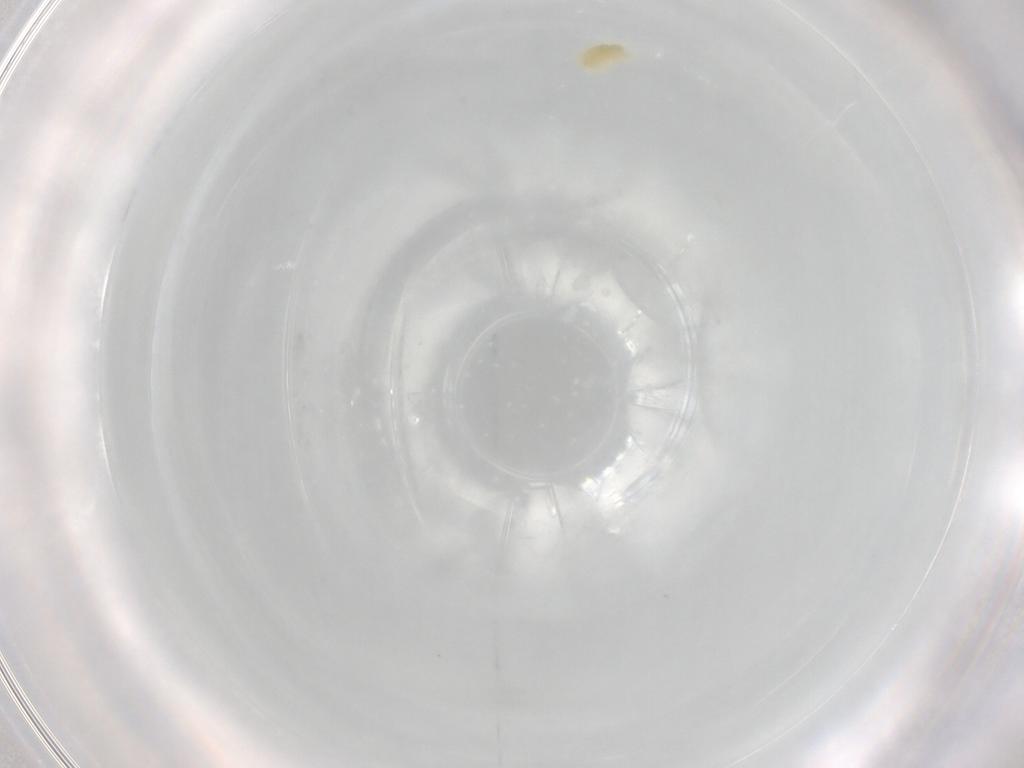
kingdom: Animalia
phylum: Arthropoda
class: Arachnida
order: Trombidiformes
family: Eupodidae
